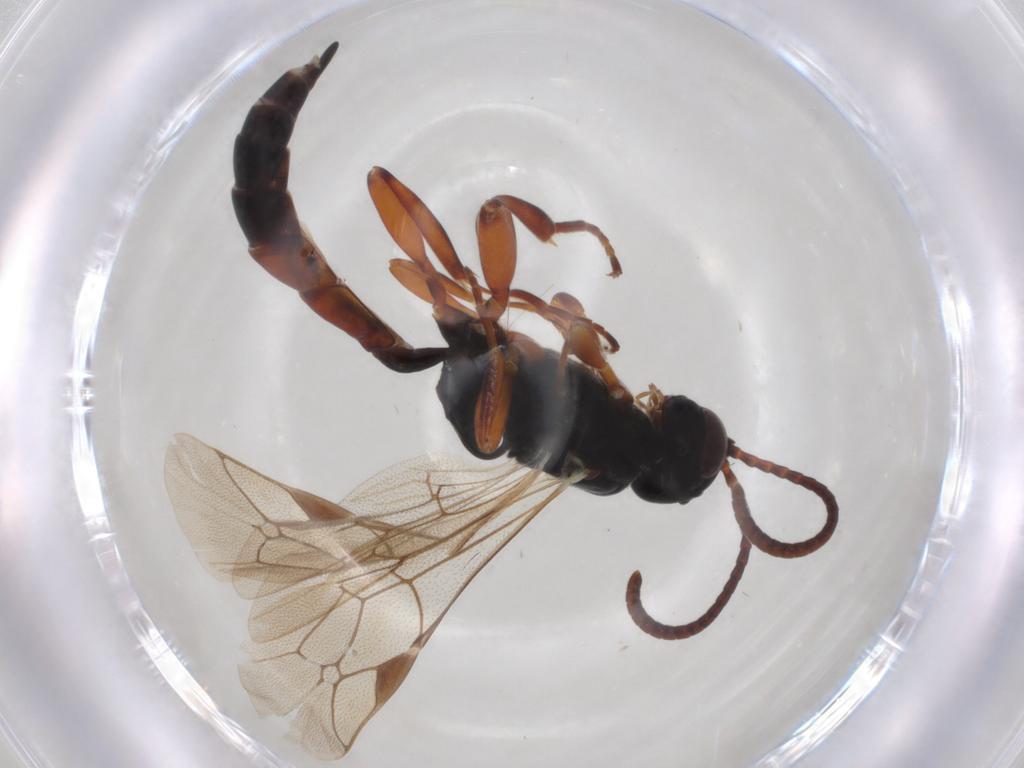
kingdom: Animalia
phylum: Arthropoda
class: Insecta
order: Hymenoptera
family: Ichneumonidae
